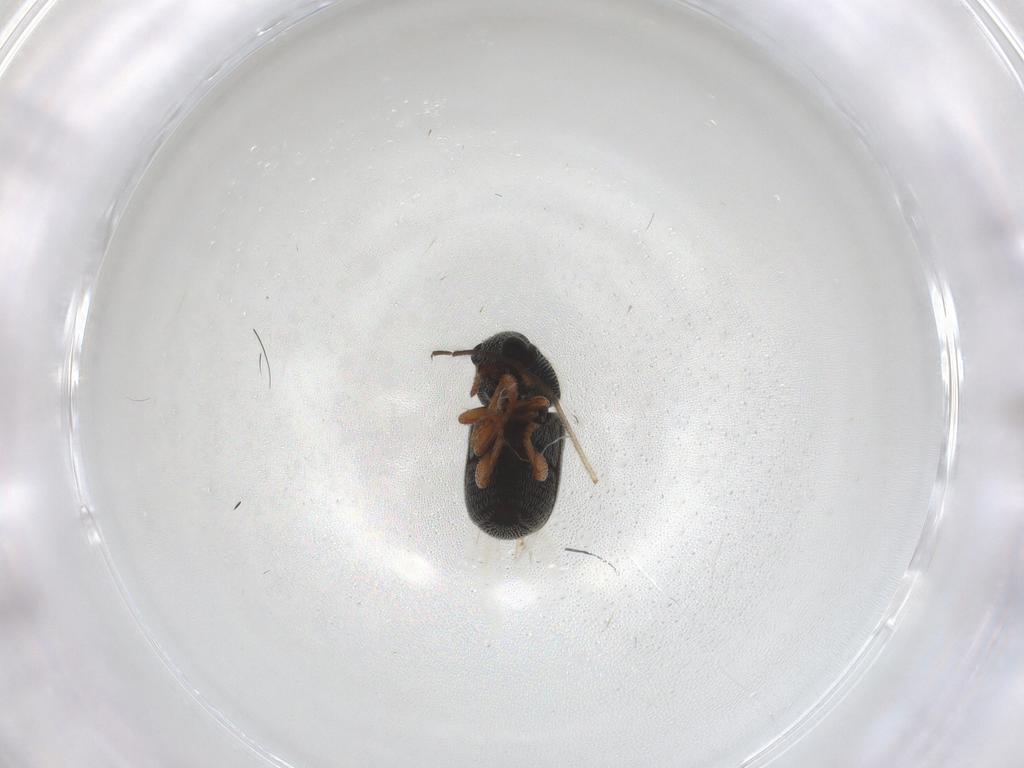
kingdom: Animalia
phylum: Arthropoda
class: Insecta
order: Coleoptera
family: Anthribidae
